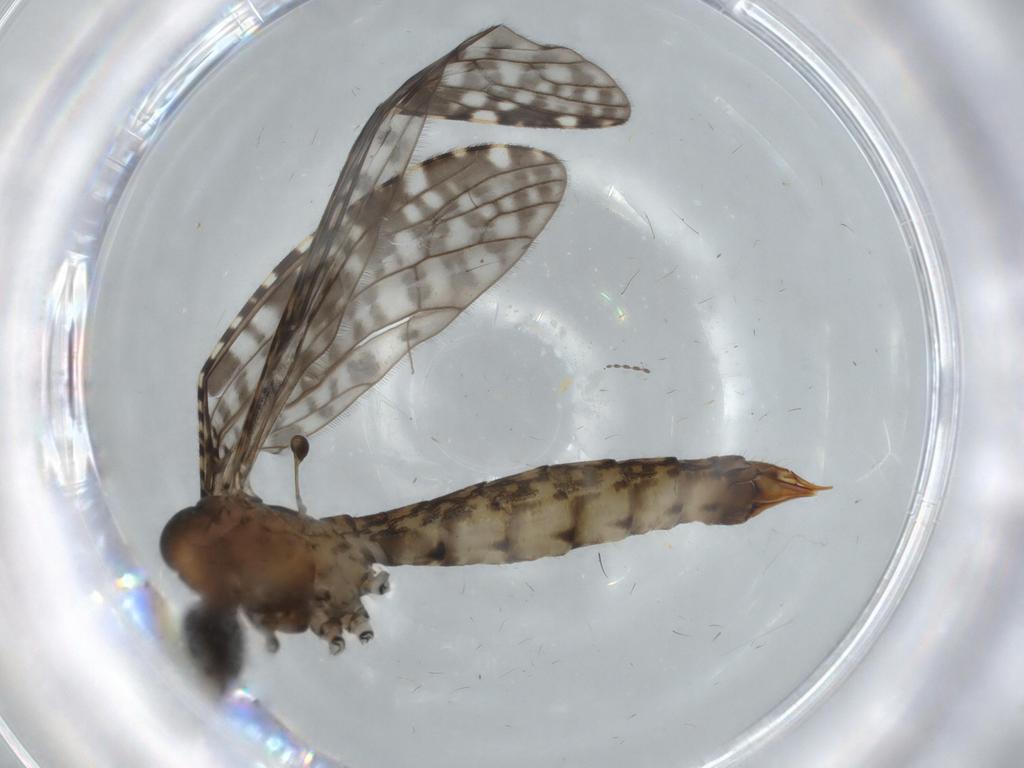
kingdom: Animalia
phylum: Arthropoda
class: Insecta
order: Diptera
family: Sciaridae
